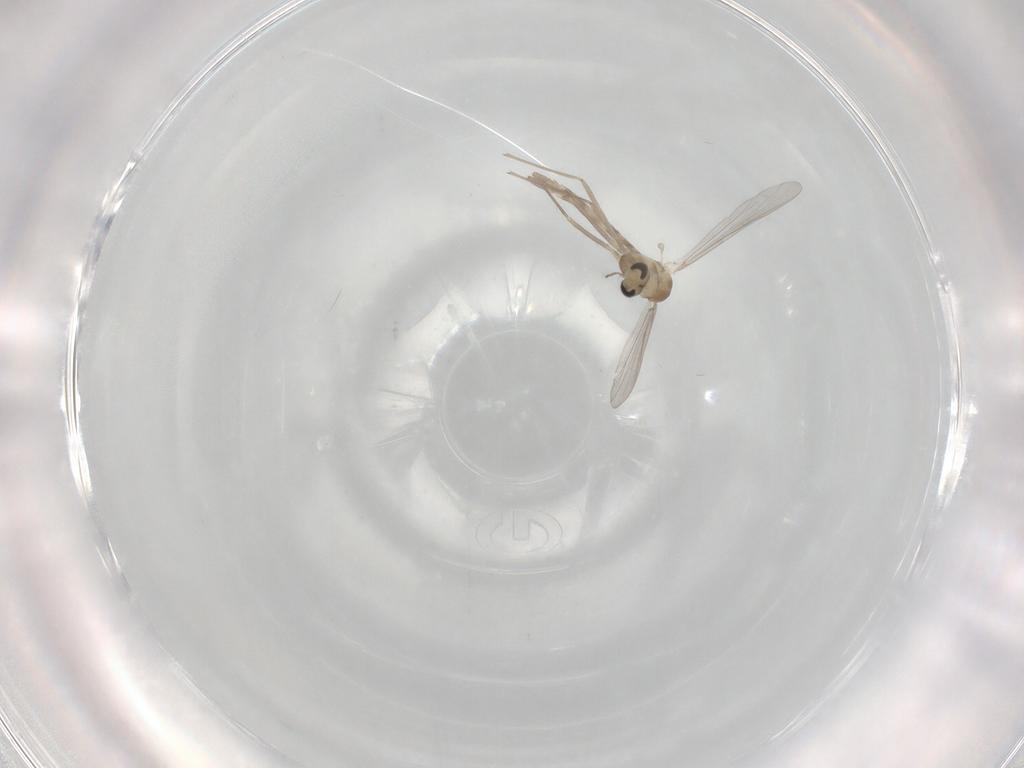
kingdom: Animalia
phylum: Arthropoda
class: Insecta
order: Diptera
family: Chironomidae
